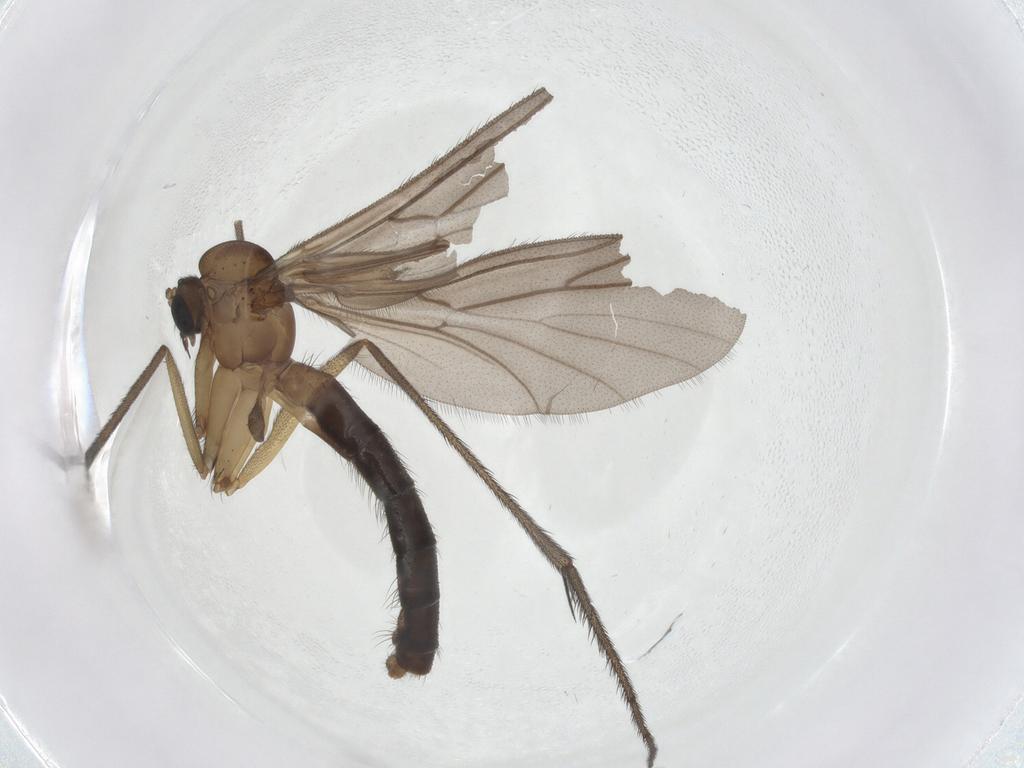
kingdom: Animalia
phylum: Arthropoda
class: Insecta
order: Diptera
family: Ditomyiidae
